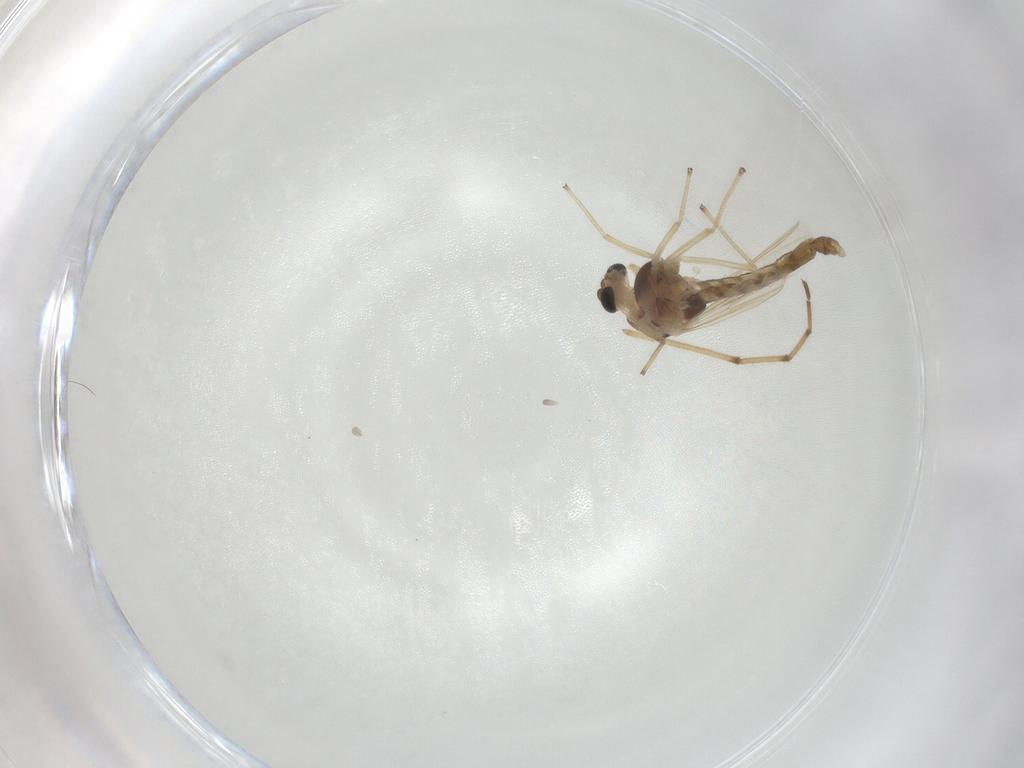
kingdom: Animalia
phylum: Arthropoda
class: Insecta
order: Diptera
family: Chironomidae
